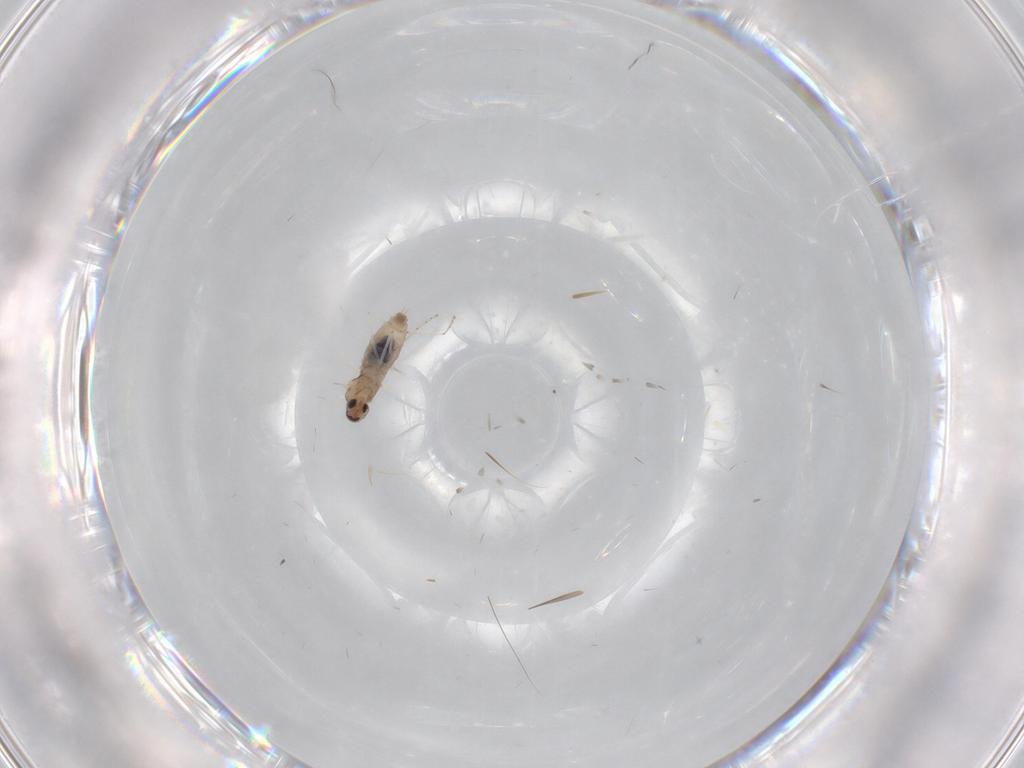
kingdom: Animalia
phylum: Arthropoda
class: Insecta
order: Diptera
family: Cecidomyiidae
